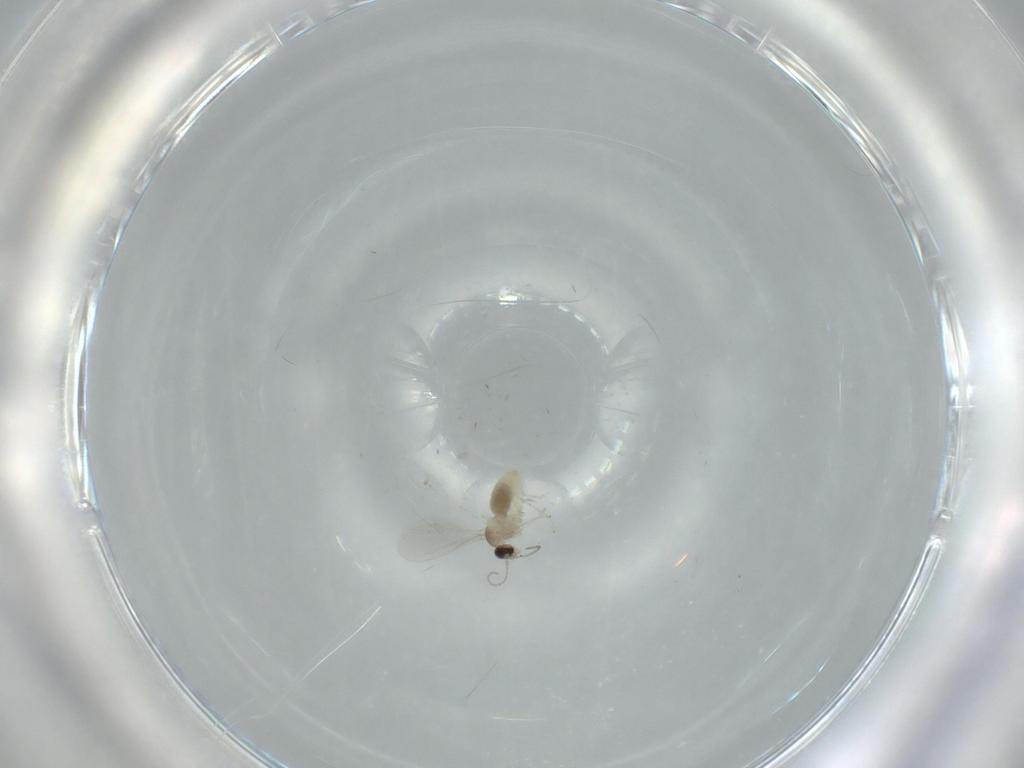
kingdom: Animalia
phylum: Arthropoda
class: Insecta
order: Diptera
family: Cecidomyiidae
